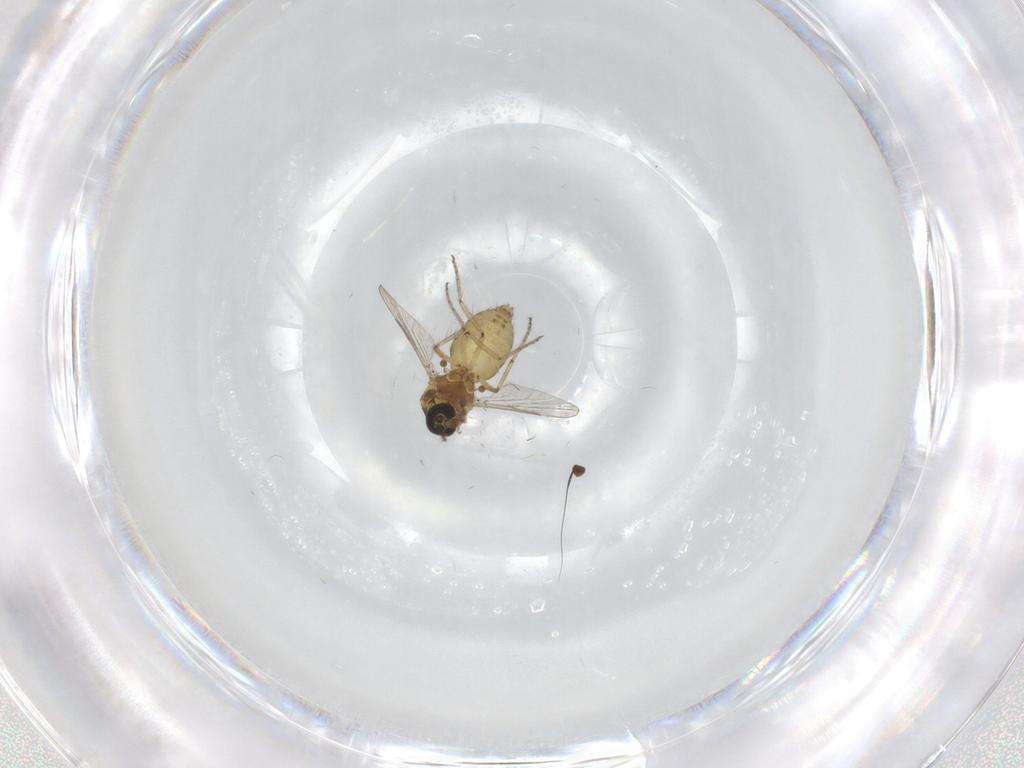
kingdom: Animalia
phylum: Arthropoda
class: Insecta
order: Diptera
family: Ceratopogonidae
